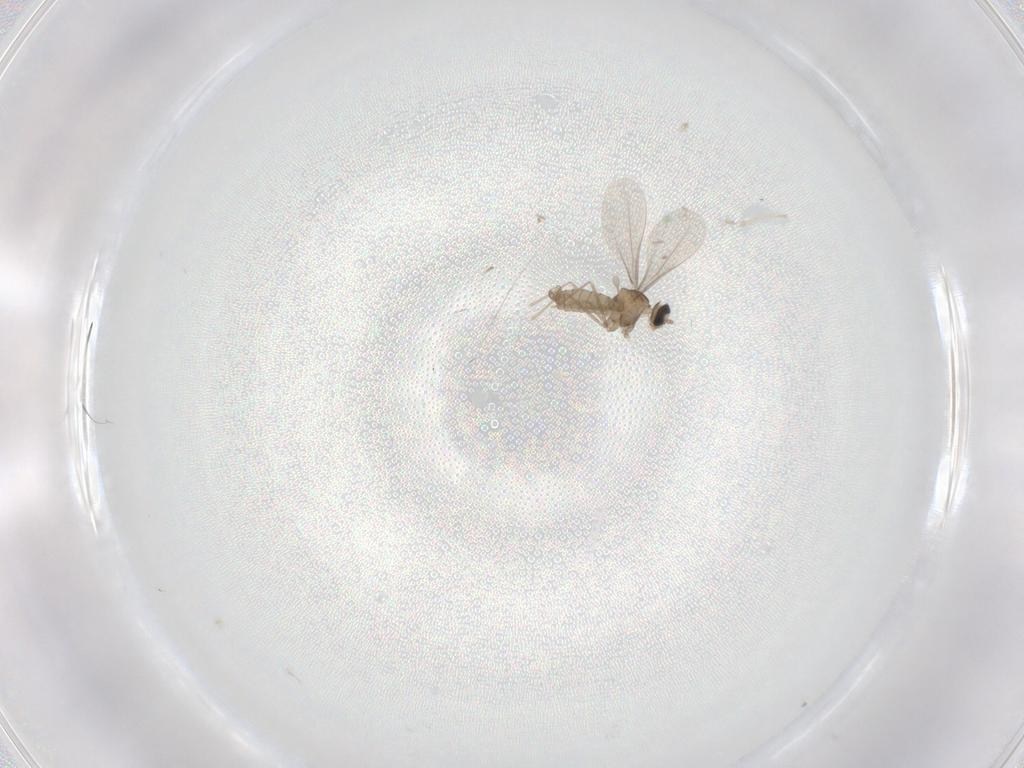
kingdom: Animalia
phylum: Arthropoda
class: Insecta
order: Diptera
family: Cecidomyiidae
